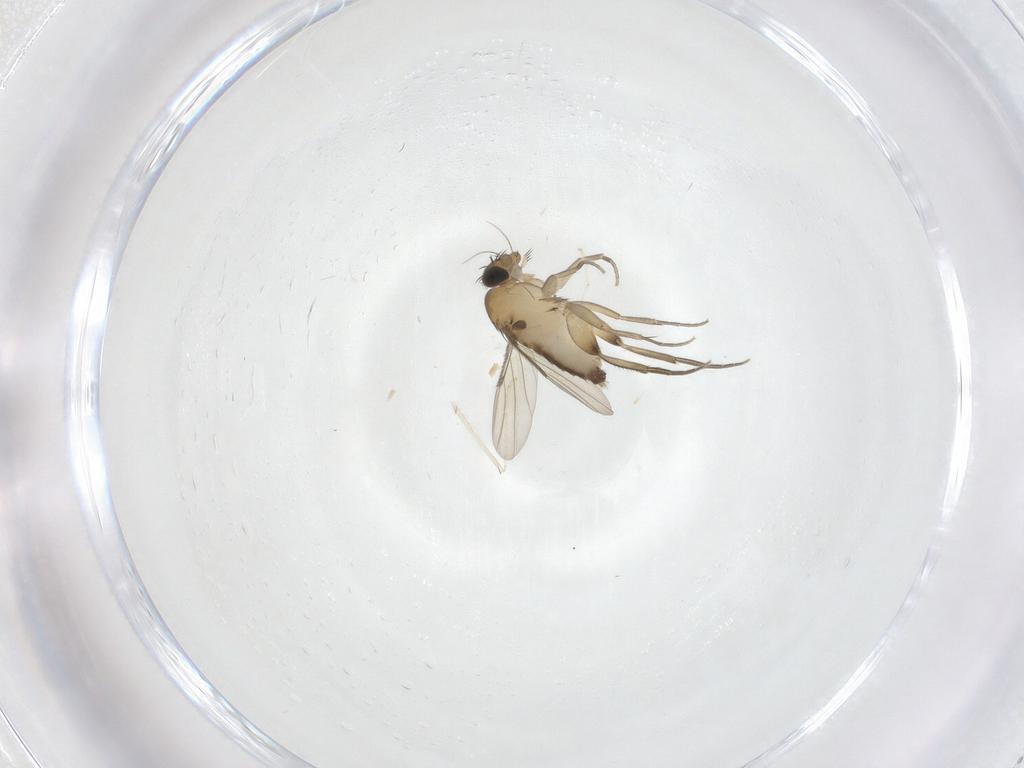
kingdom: Animalia
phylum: Arthropoda
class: Insecta
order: Diptera
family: Phoridae
